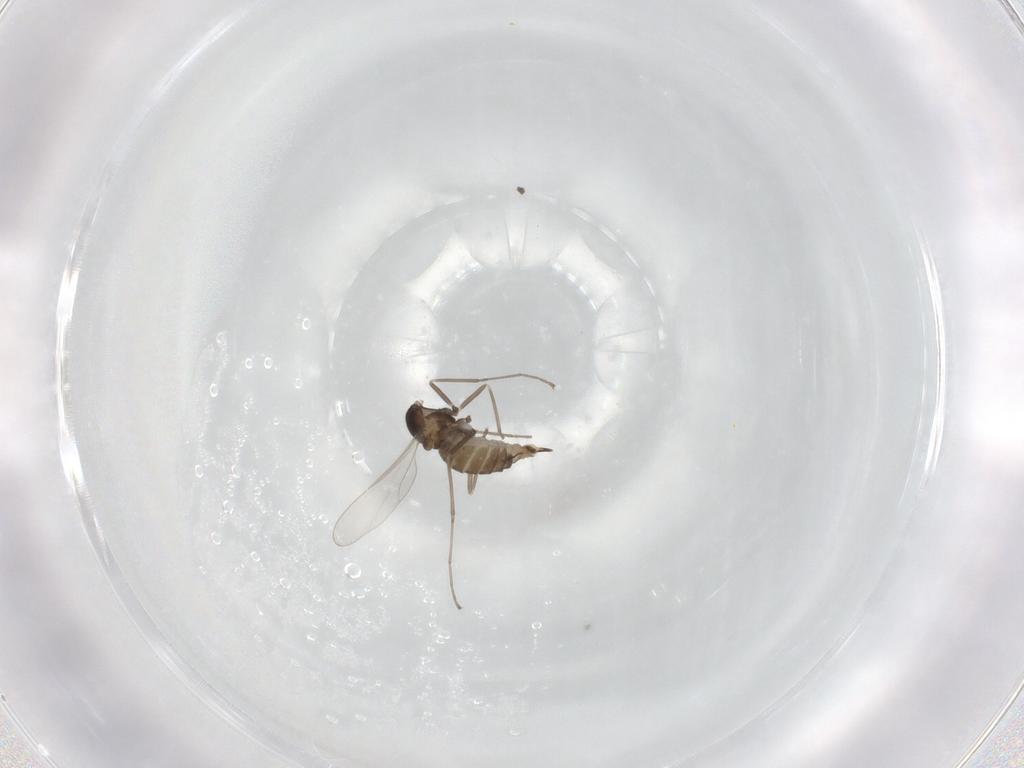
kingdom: Animalia
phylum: Arthropoda
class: Insecta
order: Diptera
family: Cecidomyiidae
